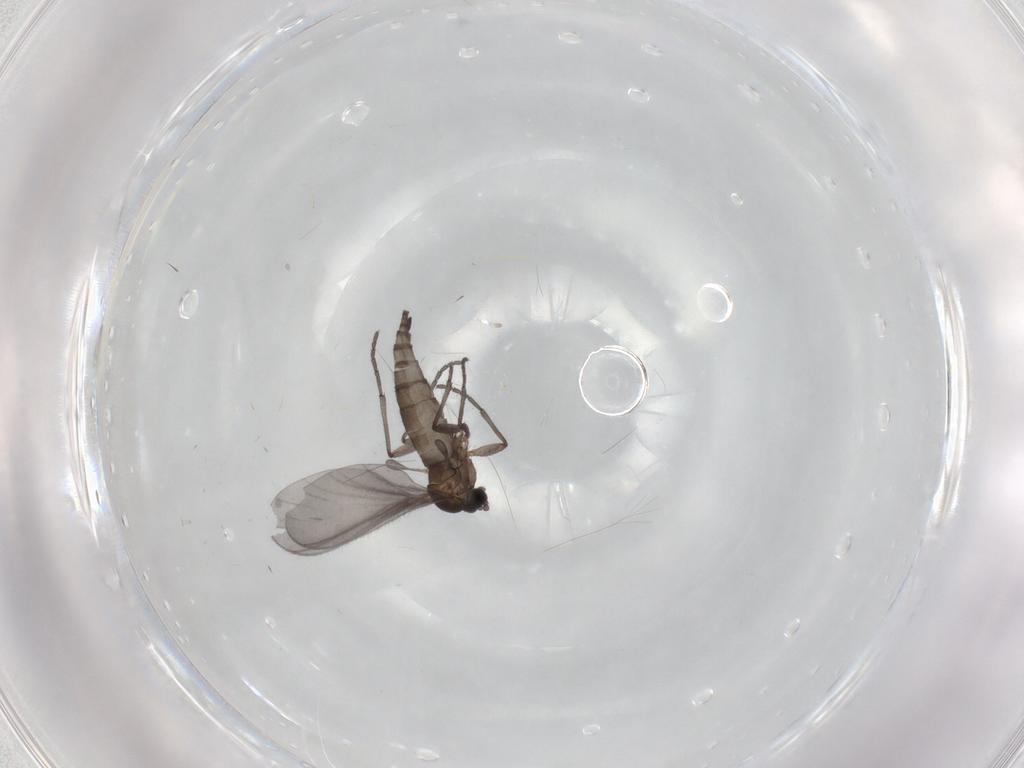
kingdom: Animalia
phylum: Arthropoda
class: Insecta
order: Diptera
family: Sciaridae
